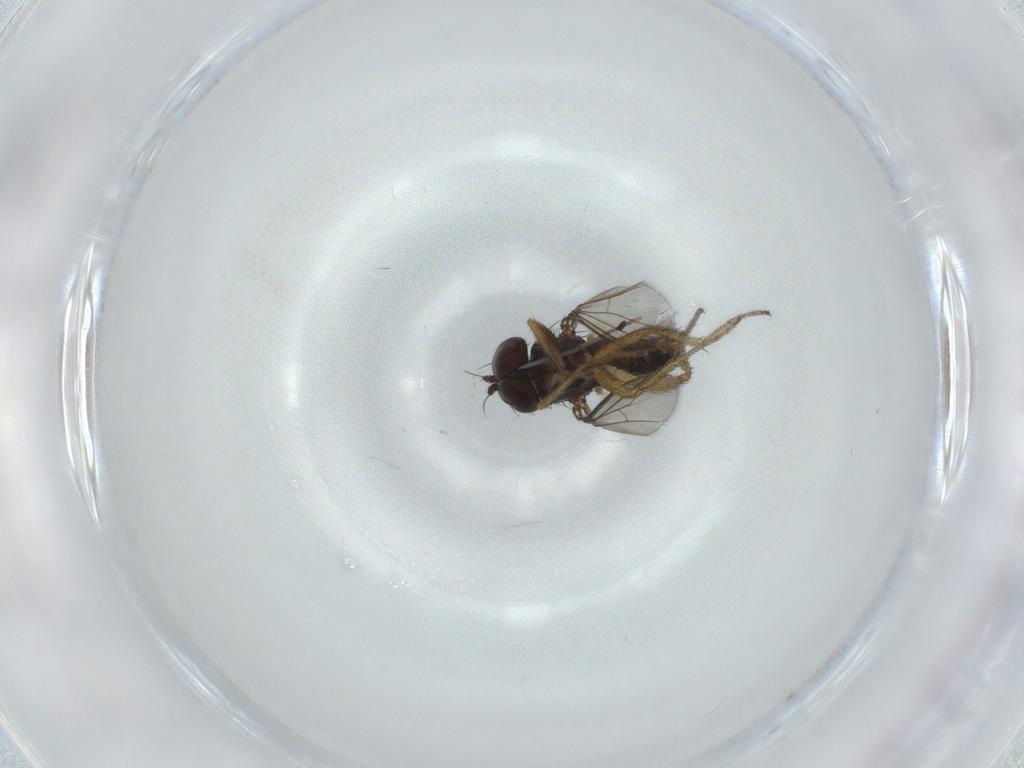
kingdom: Animalia
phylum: Arthropoda
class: Insecta
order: Diptera
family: Dolichopodidae
